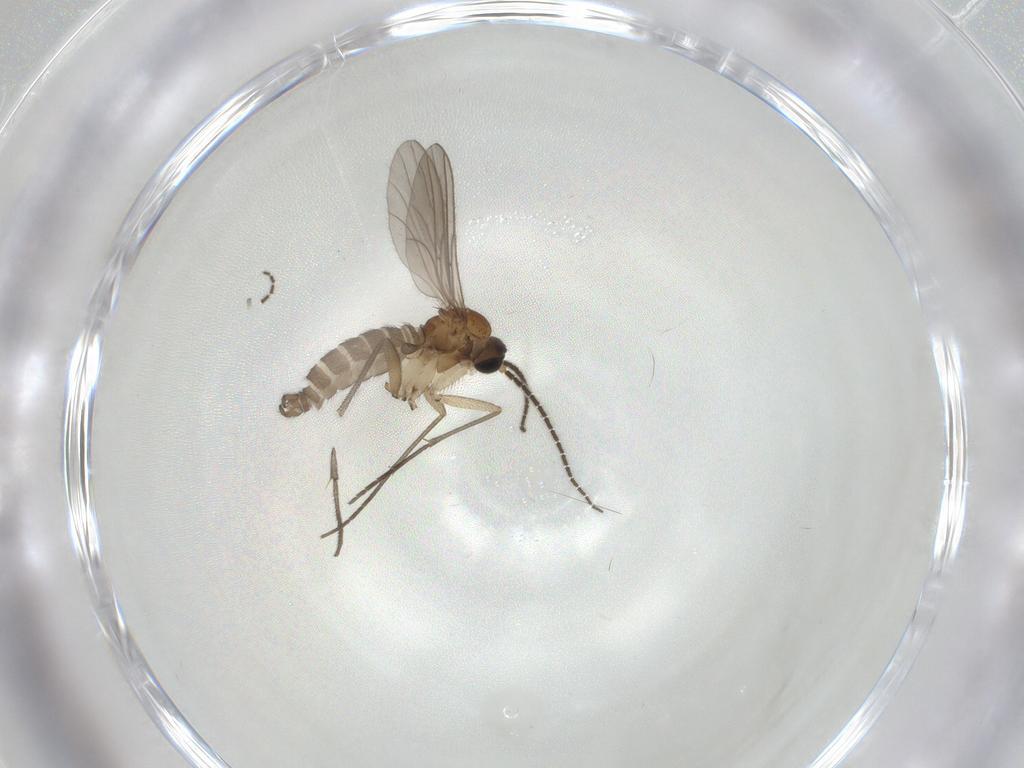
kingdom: Animalia
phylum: Arthropoda
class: Insecta
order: Diptera
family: Sciaridae
